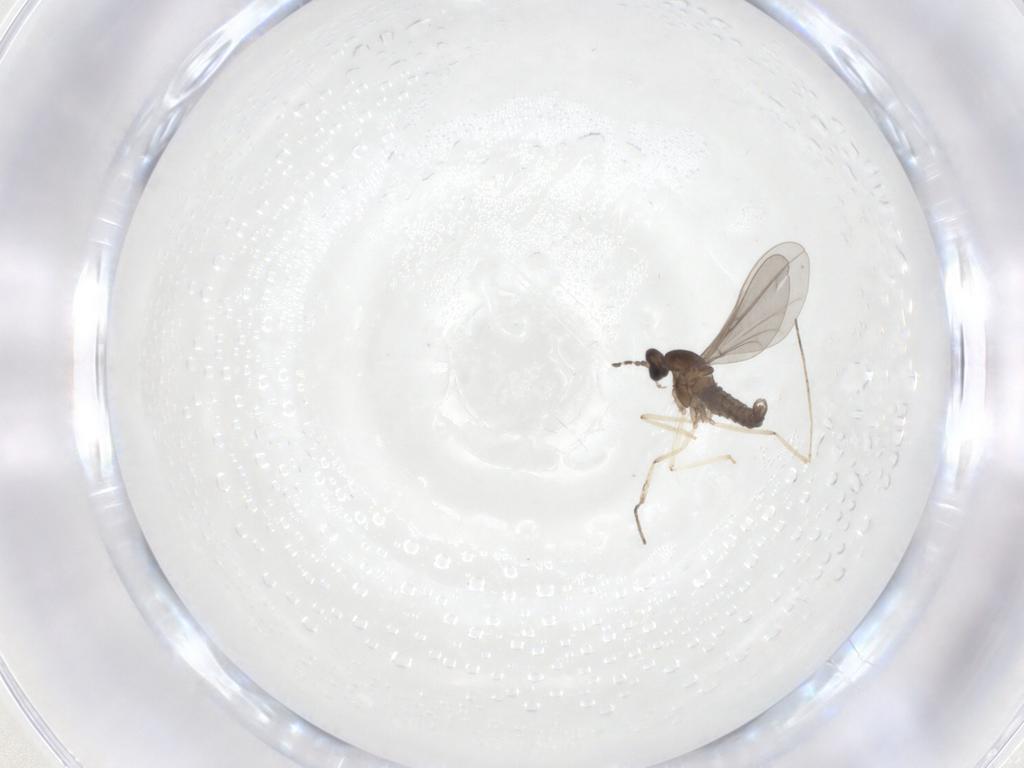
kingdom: Animalia
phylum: Arthropoda
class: Insecta
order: Diptera
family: Cecidomyiidae
